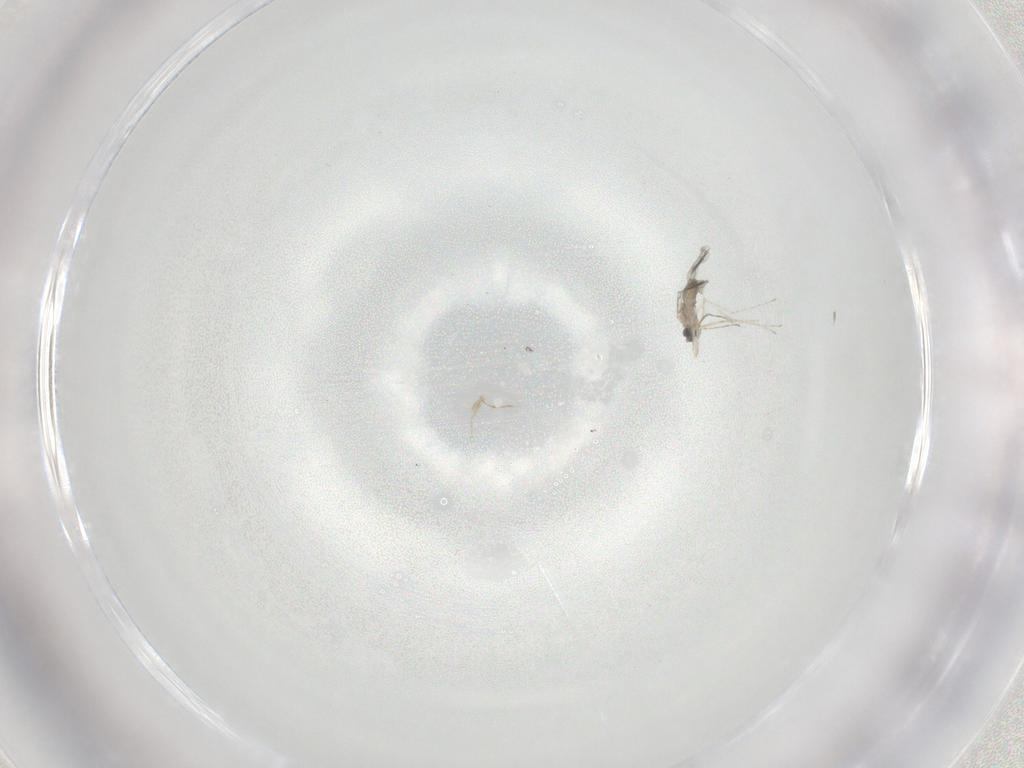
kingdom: Animalia
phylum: Arthropoda
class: Insecta
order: Diptera
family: Cecidomyiidae
